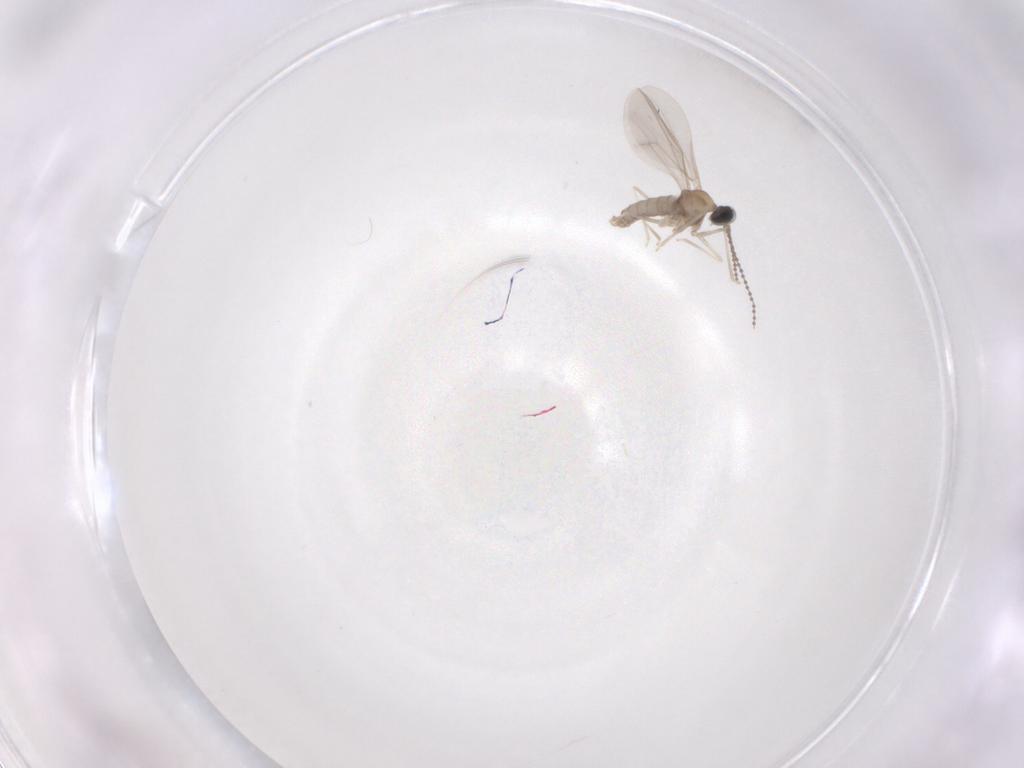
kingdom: Animalia
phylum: Arthropoda
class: Insecta
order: Diptera
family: Cecidomyiidae
